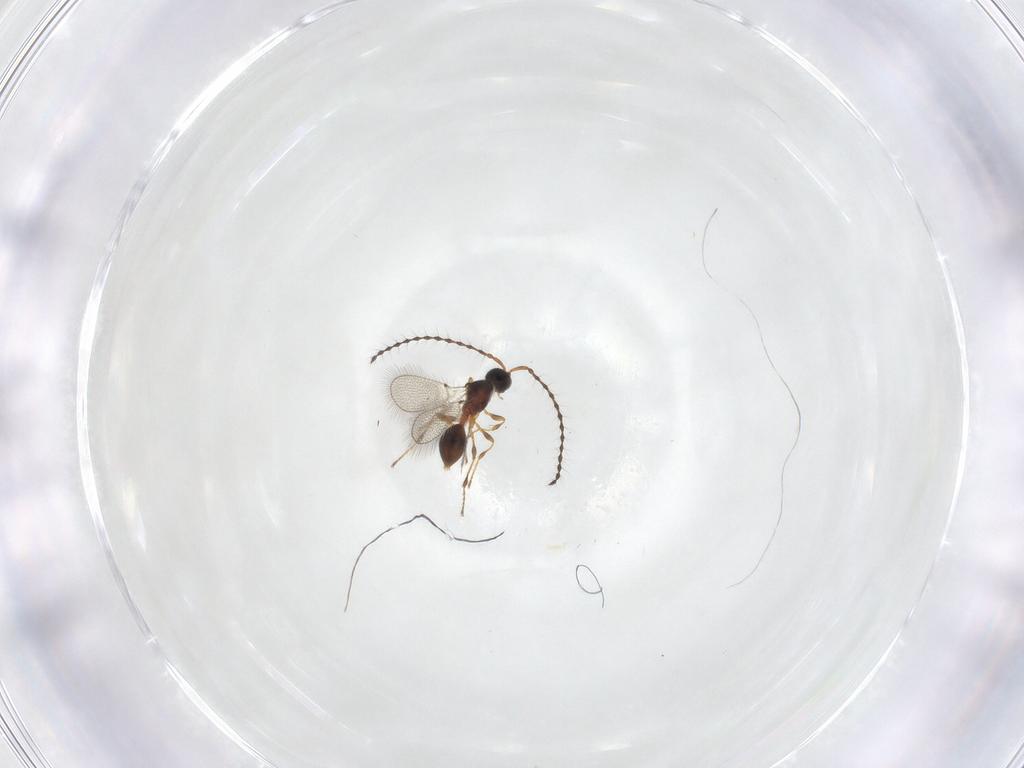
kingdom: Animalia
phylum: Arthropoda
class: Insecta
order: Hymenoptera
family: Diapriidae
